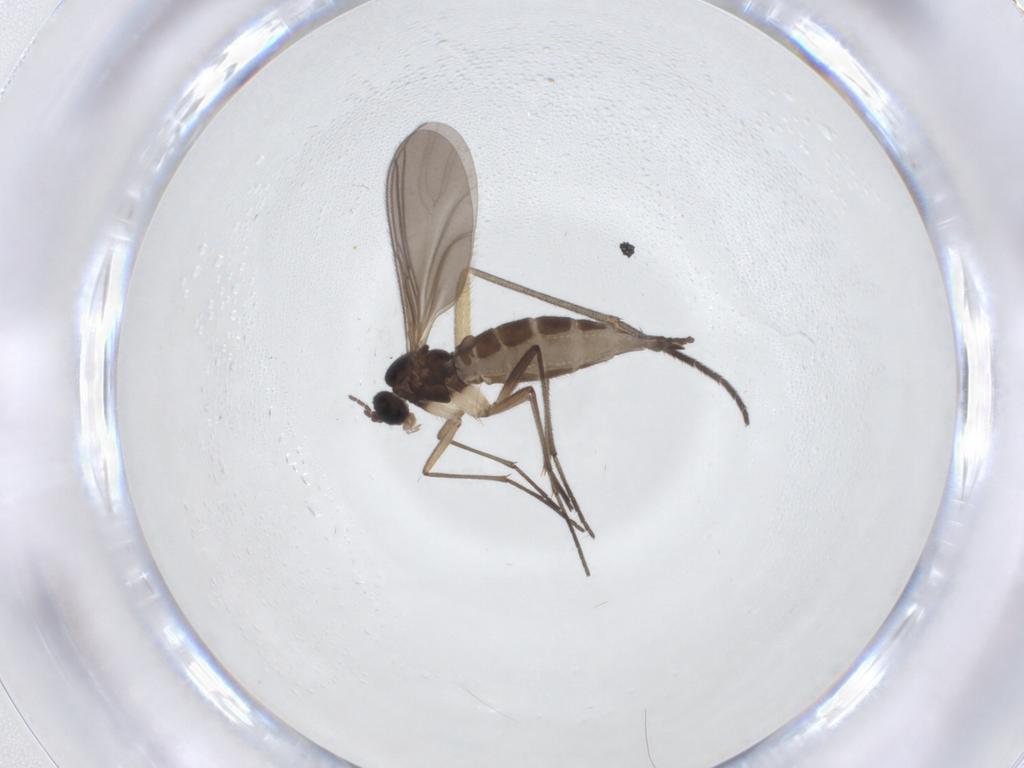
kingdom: Animalia
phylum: Arthropoda
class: Insecta
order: Diptera
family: Sciaridae
